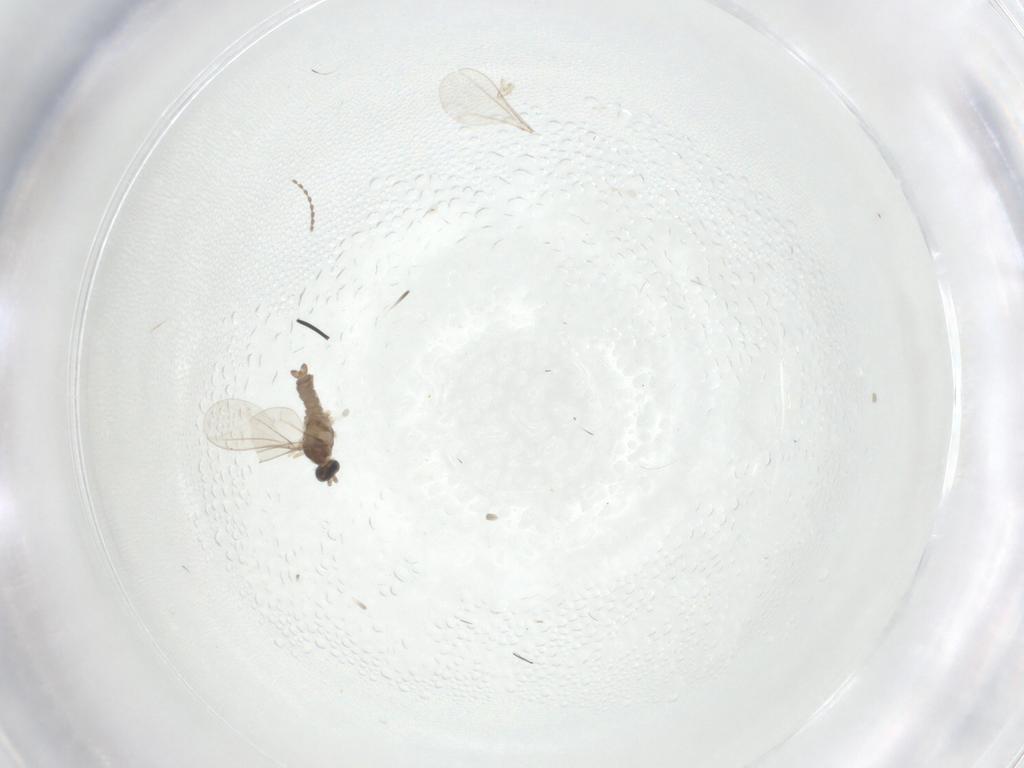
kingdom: Animalia
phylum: Arthropoda
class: Insecta
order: Diptera
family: Cecidomyiidae
